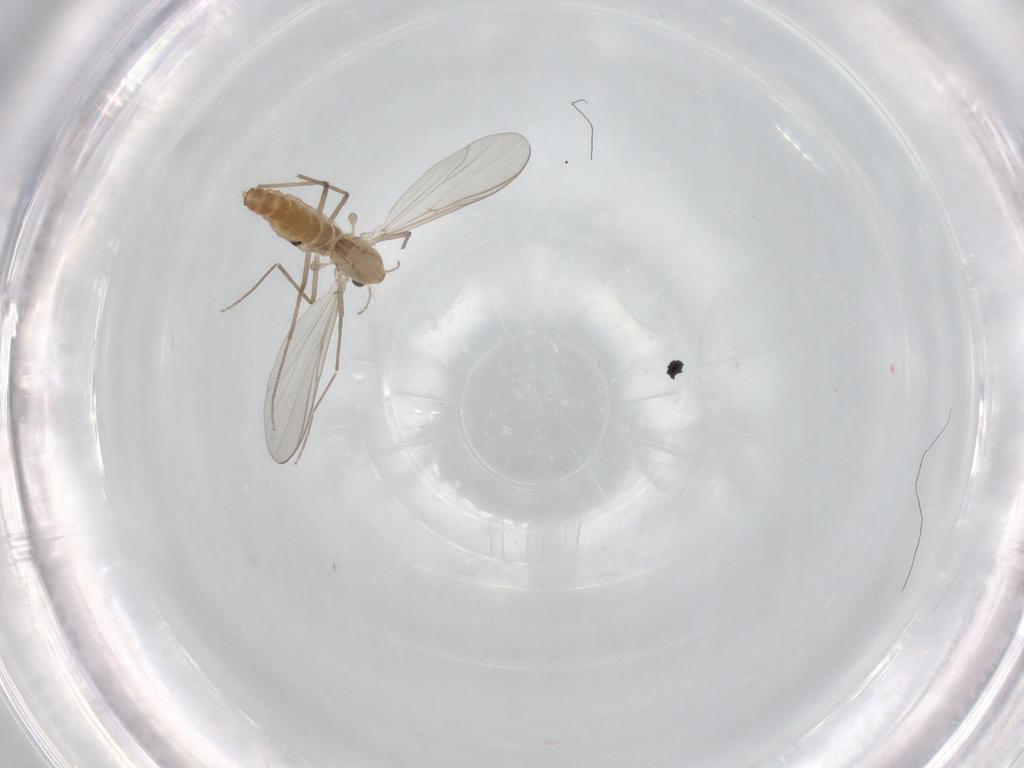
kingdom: Animalia
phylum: Arthropoda
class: Insecta
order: Diptera
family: Chironomidae
